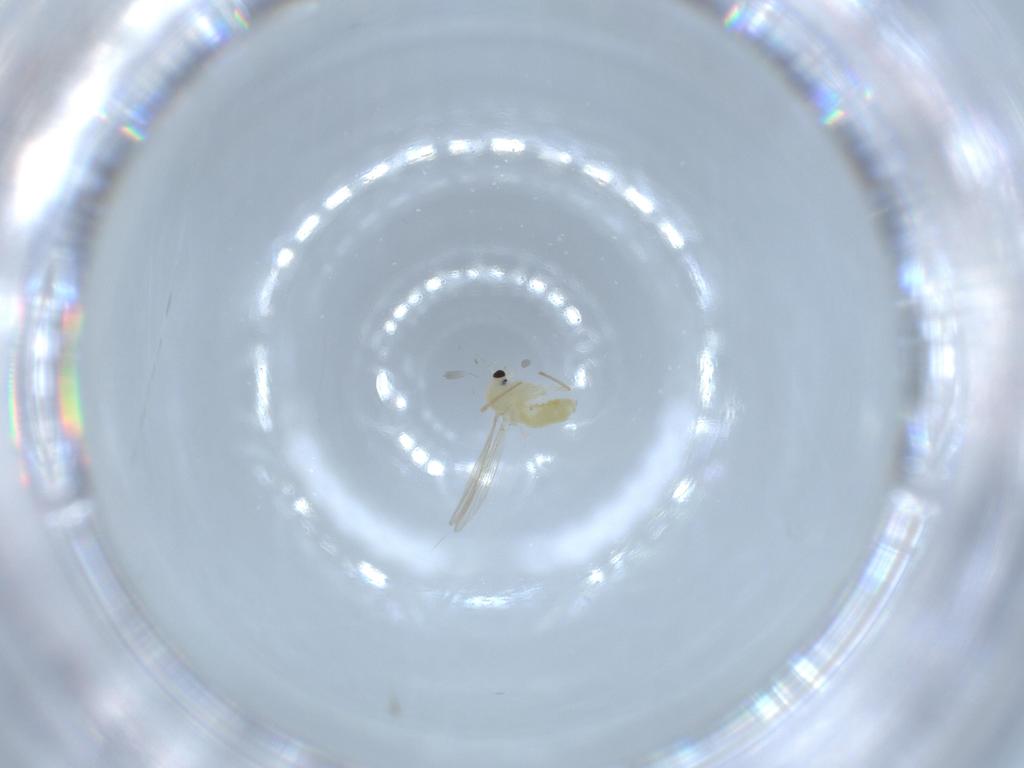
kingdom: Animalia
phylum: Arthropoda
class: Insecta
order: Diptera
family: Chironomidae
